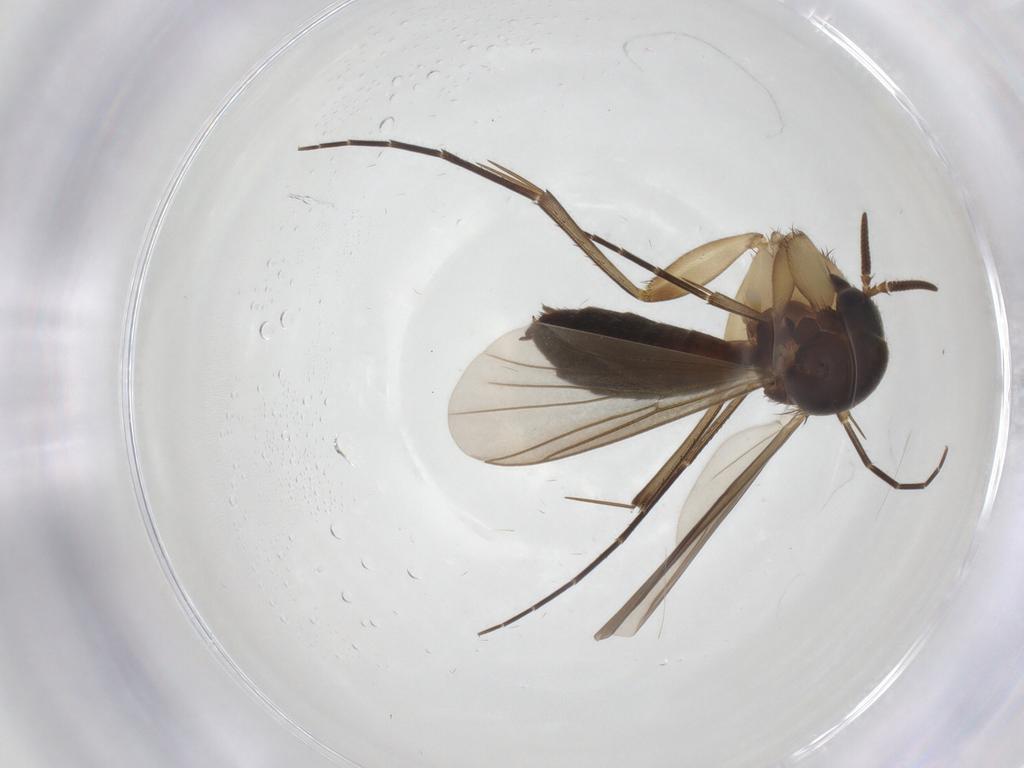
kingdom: Animalia
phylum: Arthropoda
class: Insecta
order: Diptera
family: Mycetophilidae
